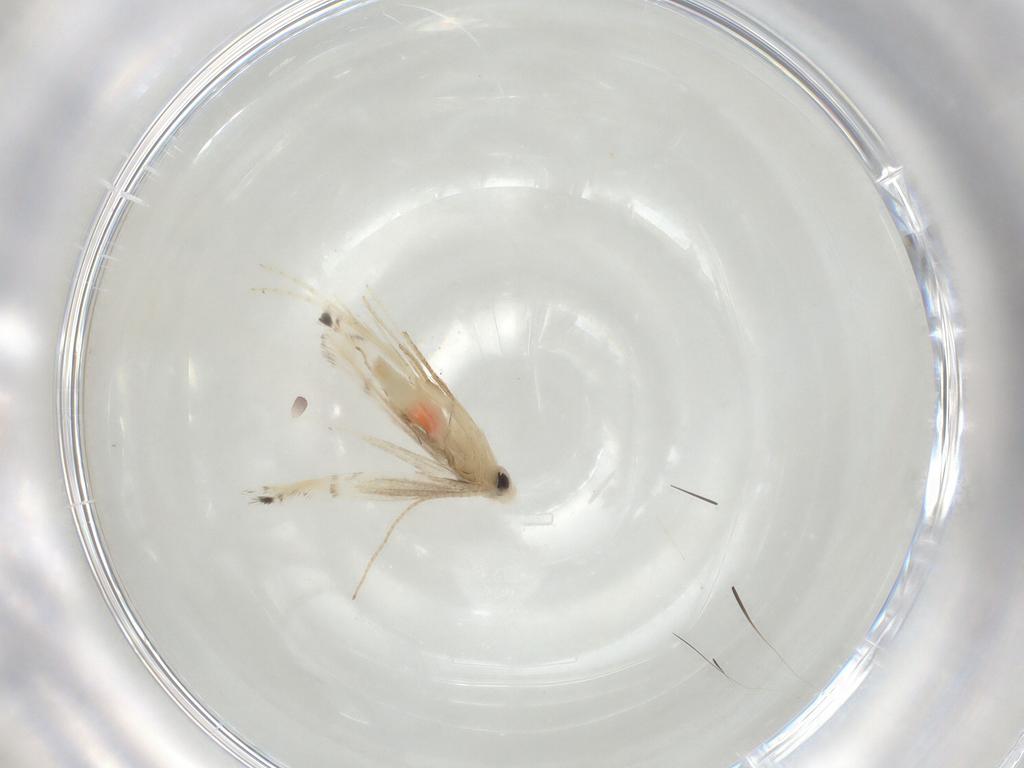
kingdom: Animalia
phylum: Arthropoda
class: Insecta
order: Lepidoptera
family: Gracillariidae
